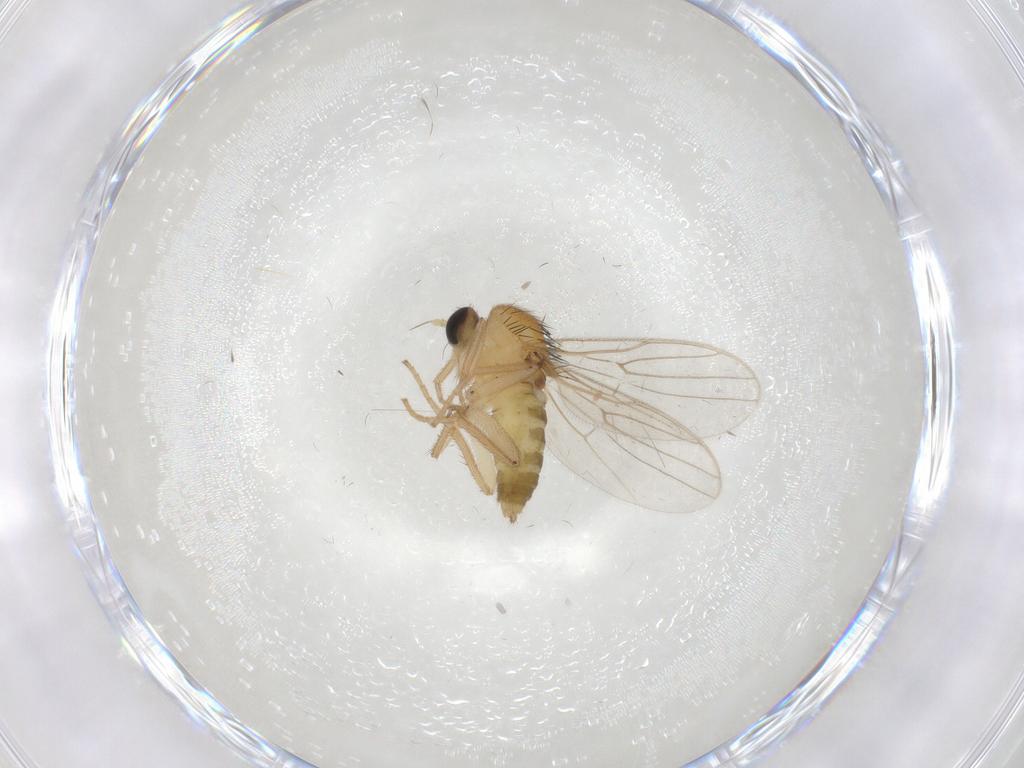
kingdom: Animalia
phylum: Arthropoda
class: Insecta
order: Diptera
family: Hybotidae
